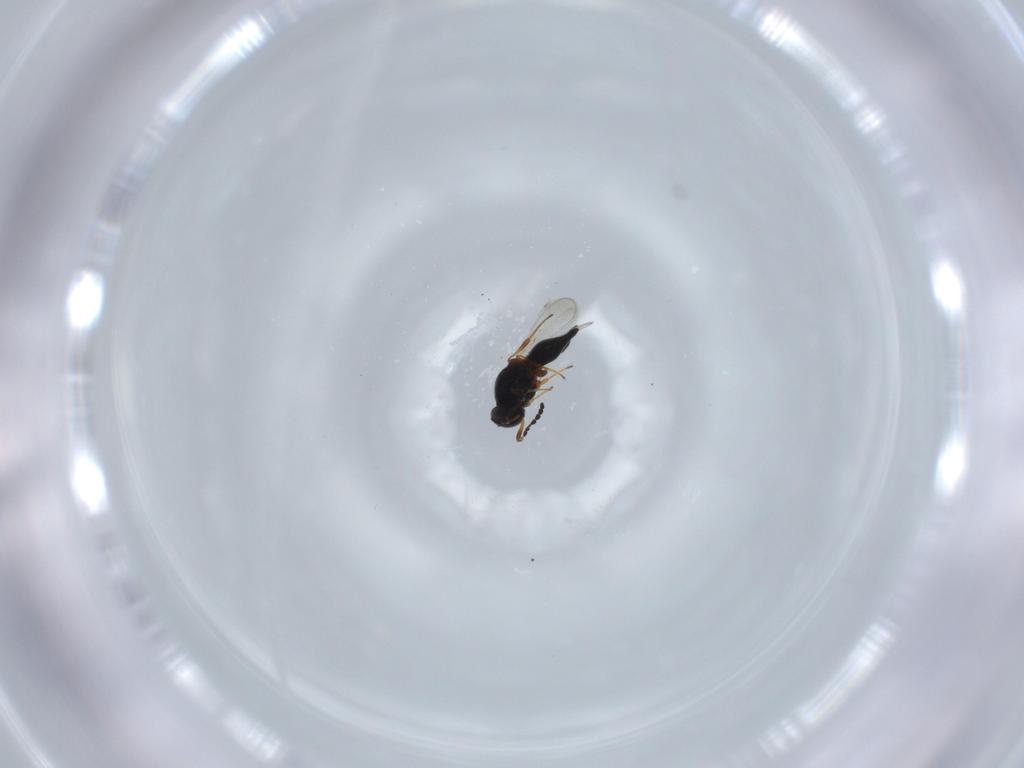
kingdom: Animalia
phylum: Arthropoda
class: Insecta
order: Hymenoptera
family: Platygastridae
